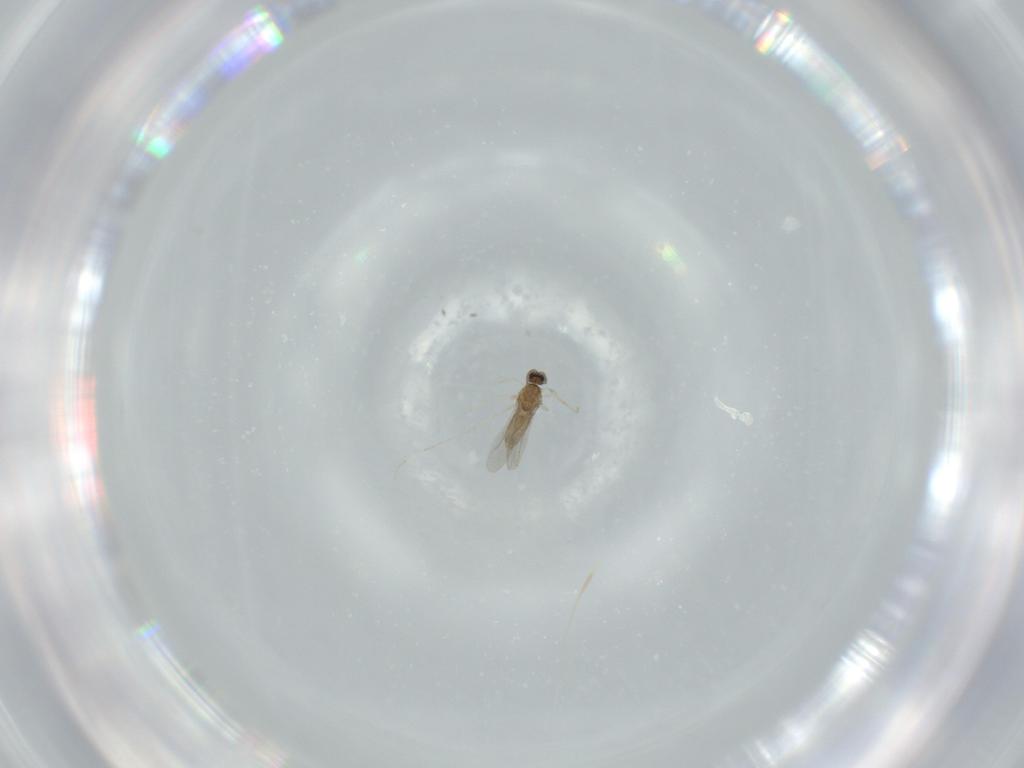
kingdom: Animalia
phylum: Arthropoda
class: Insecta
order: Diptera
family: Cecidomyiidae
